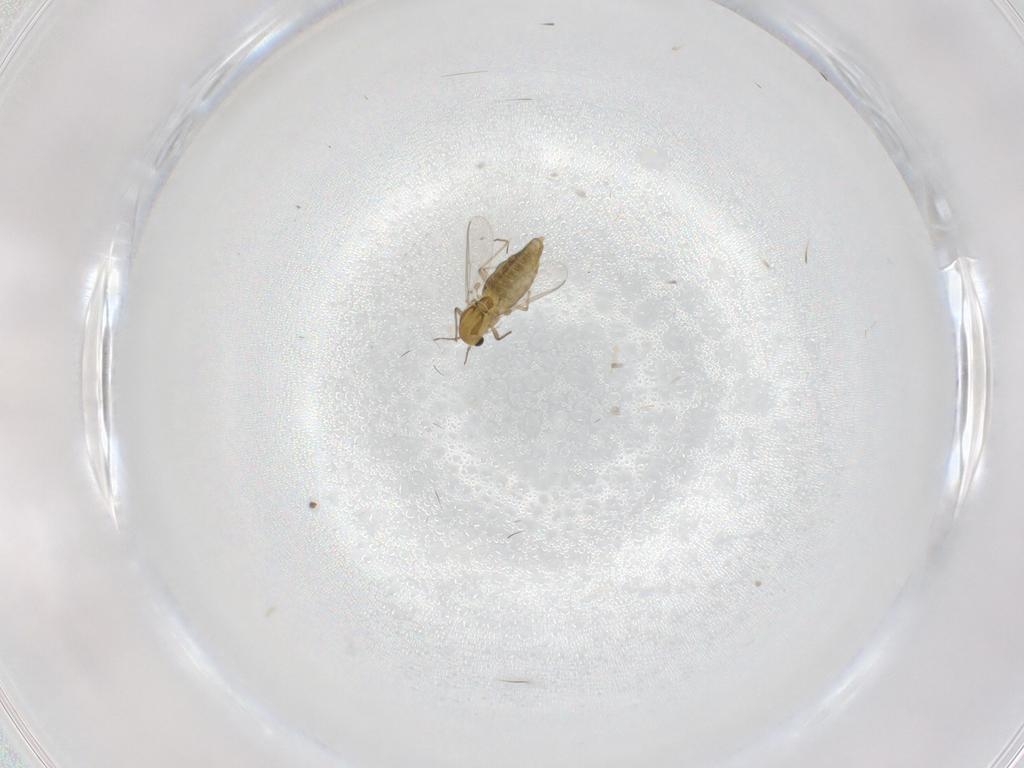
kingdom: Animalia
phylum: Arthropoda
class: Insecta
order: Diptera
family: Chironomidae
